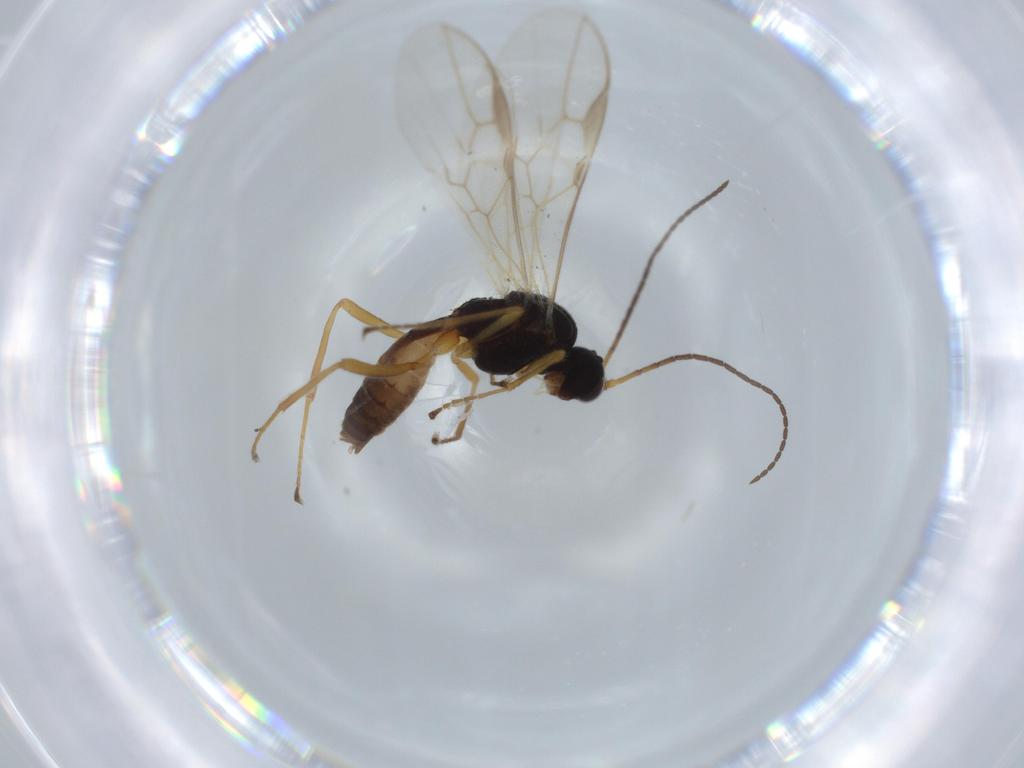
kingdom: Animalia
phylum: Arthropoda
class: Insecta
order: Hymenoptera
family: Braconidae
